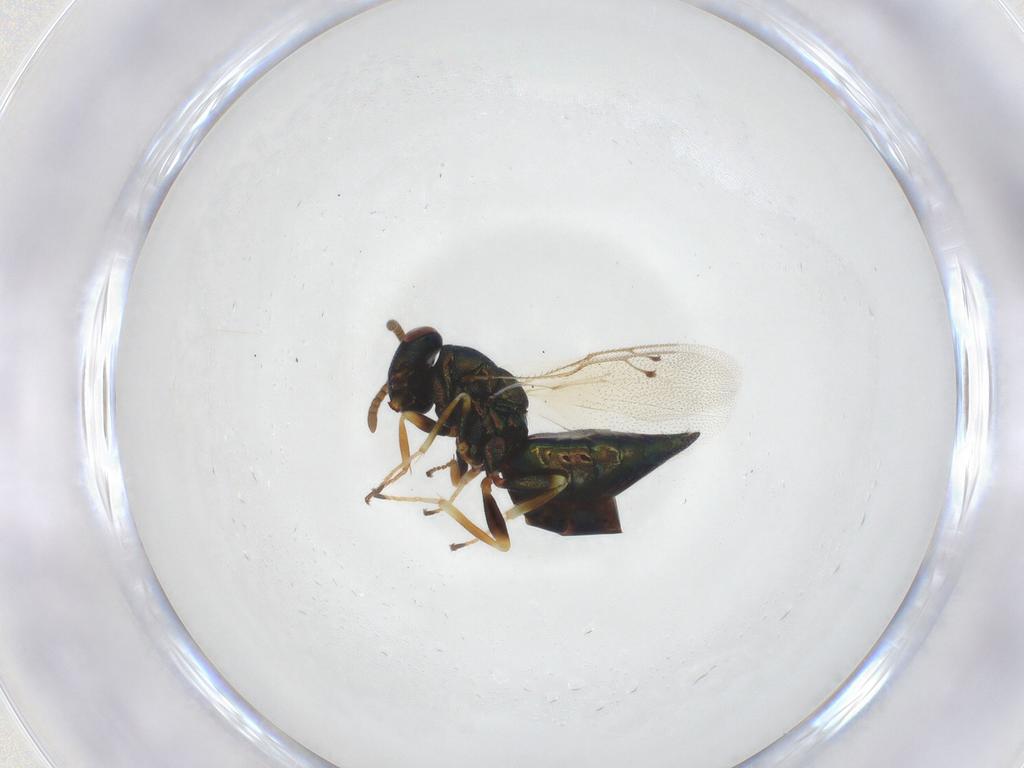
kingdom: Animalia
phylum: Arthropoda
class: Insecta
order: Hymenoptera
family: Pteromalidae
